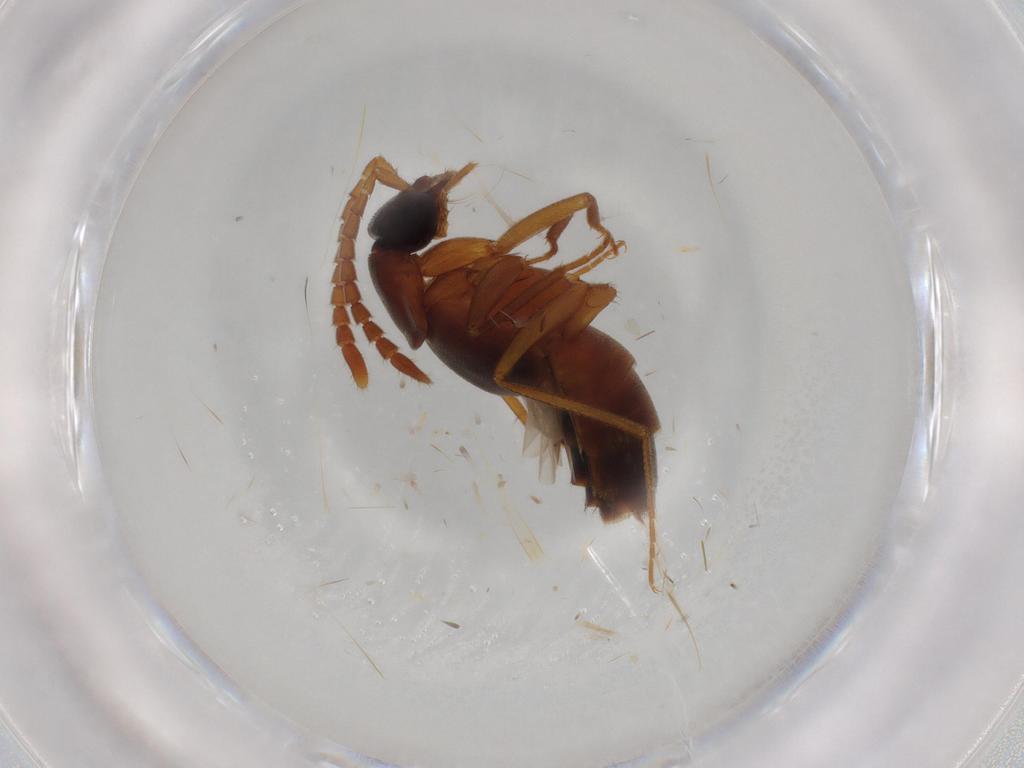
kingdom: Animalia
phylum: Arthropoda
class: Insecta
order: Coleoptera
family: Staphylinidae
